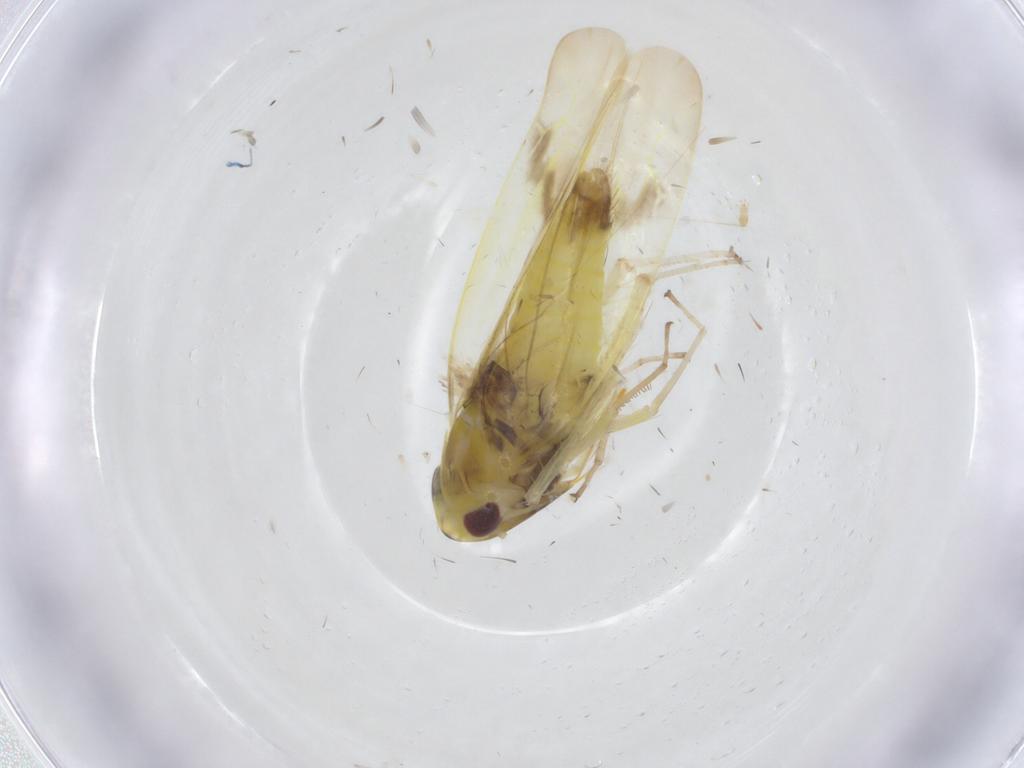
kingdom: Animalia
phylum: Arthropoda
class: Insecta
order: Hemiptera
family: Cicadellidae
